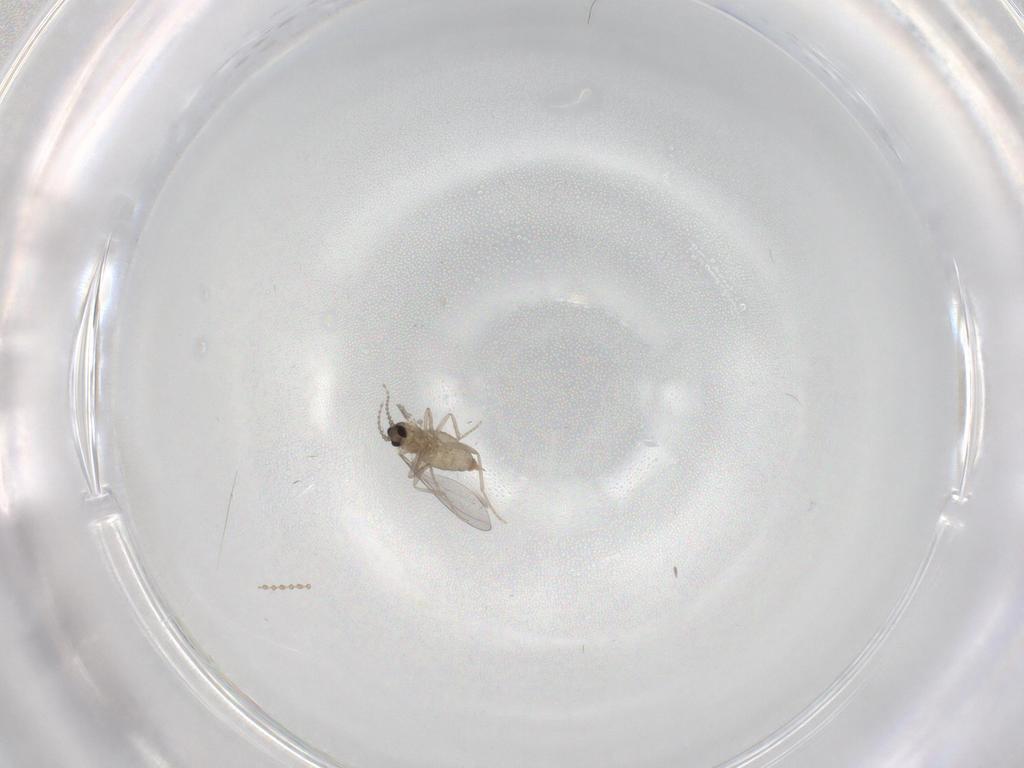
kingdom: Animalia
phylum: Arthropoda
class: Insecta
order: Diptera
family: Cecidomyiidae
